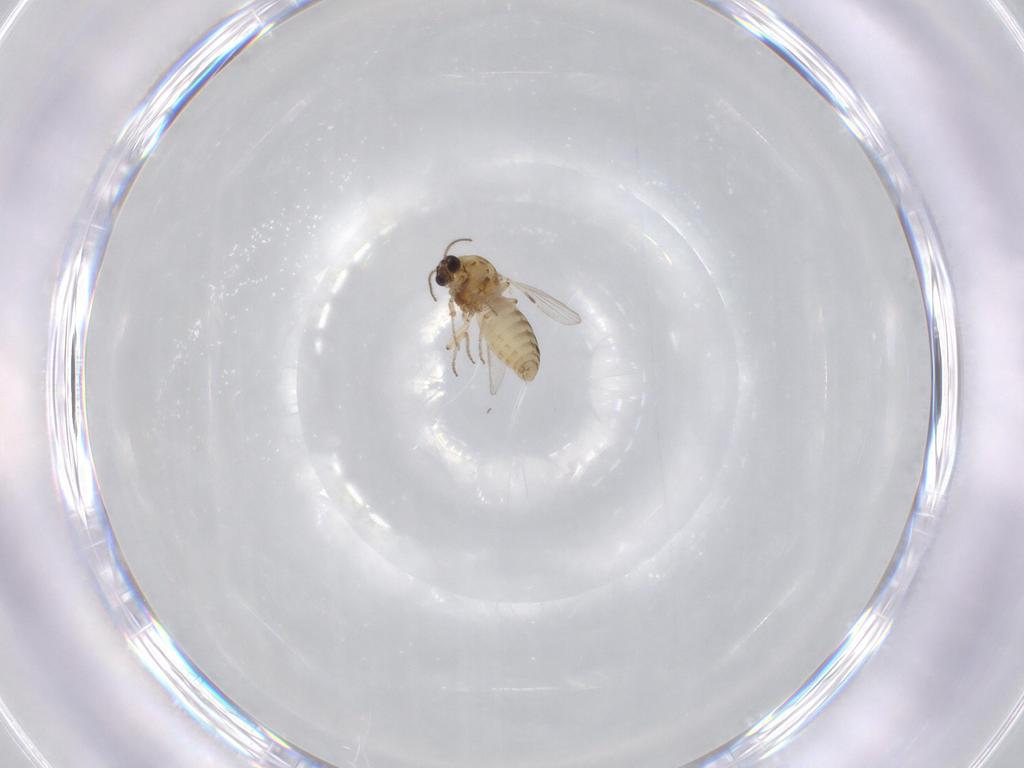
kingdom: Animalia
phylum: Arthropoda
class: Insecta
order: Diptera
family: Ceratopogonidae
